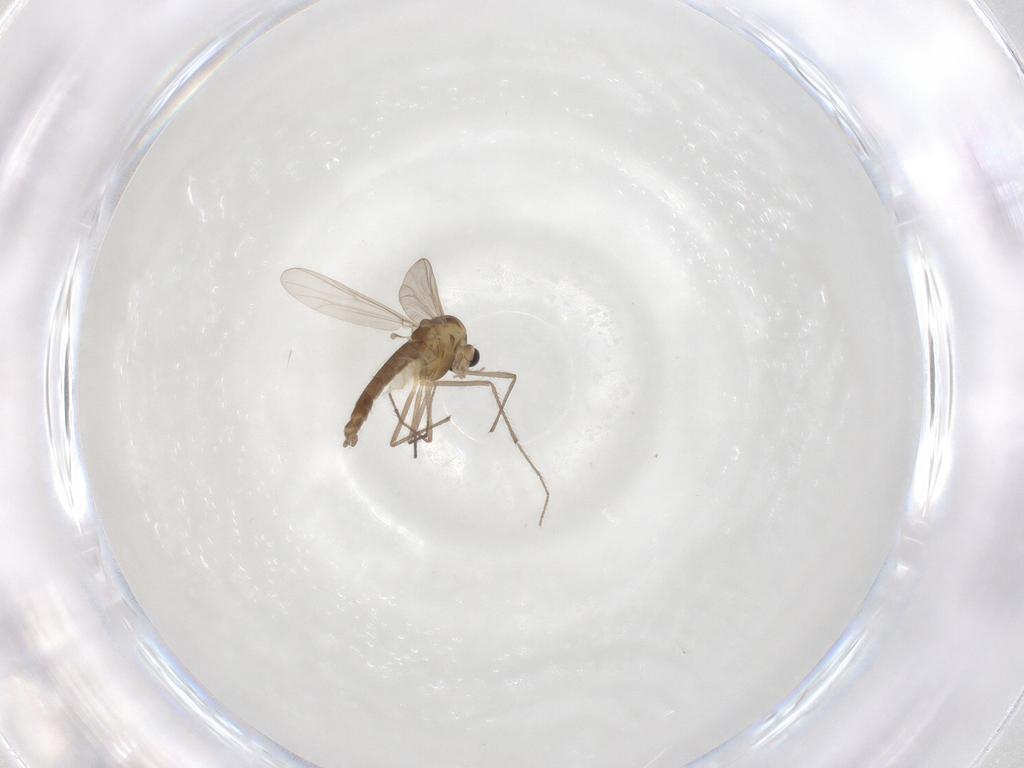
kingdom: Animalia
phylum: Arthropoda
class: Insecta
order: Diptera
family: Chironomidae
